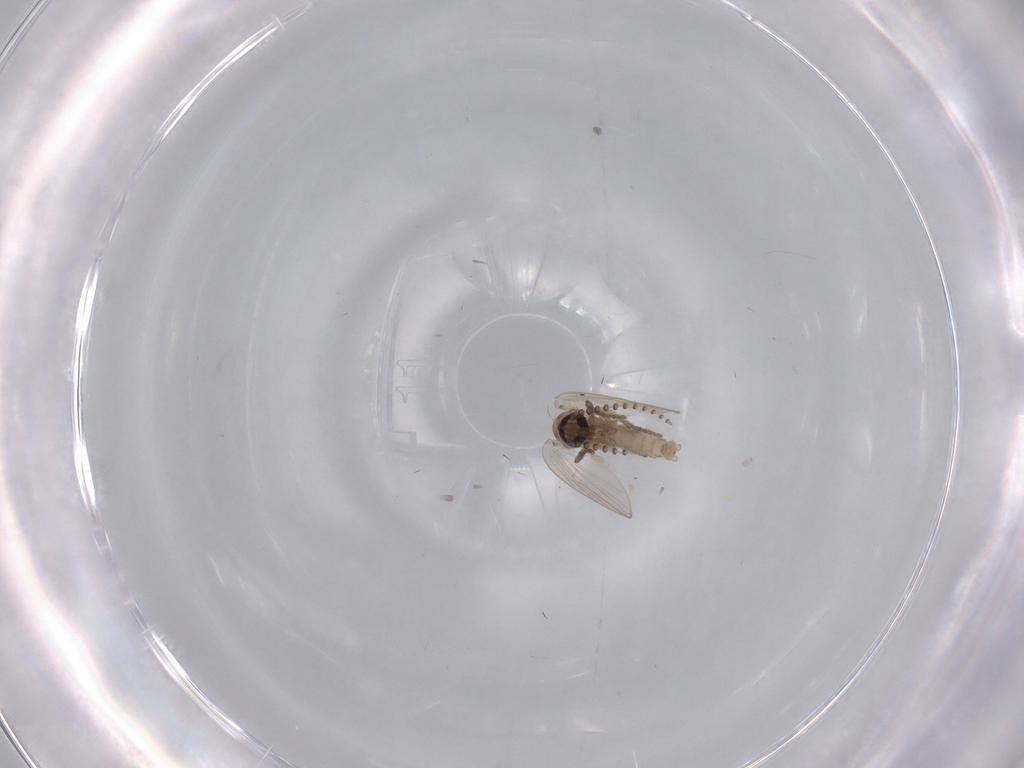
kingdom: Animalia
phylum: Arthropoda
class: Insecta
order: Diptera
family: Psychodidae
